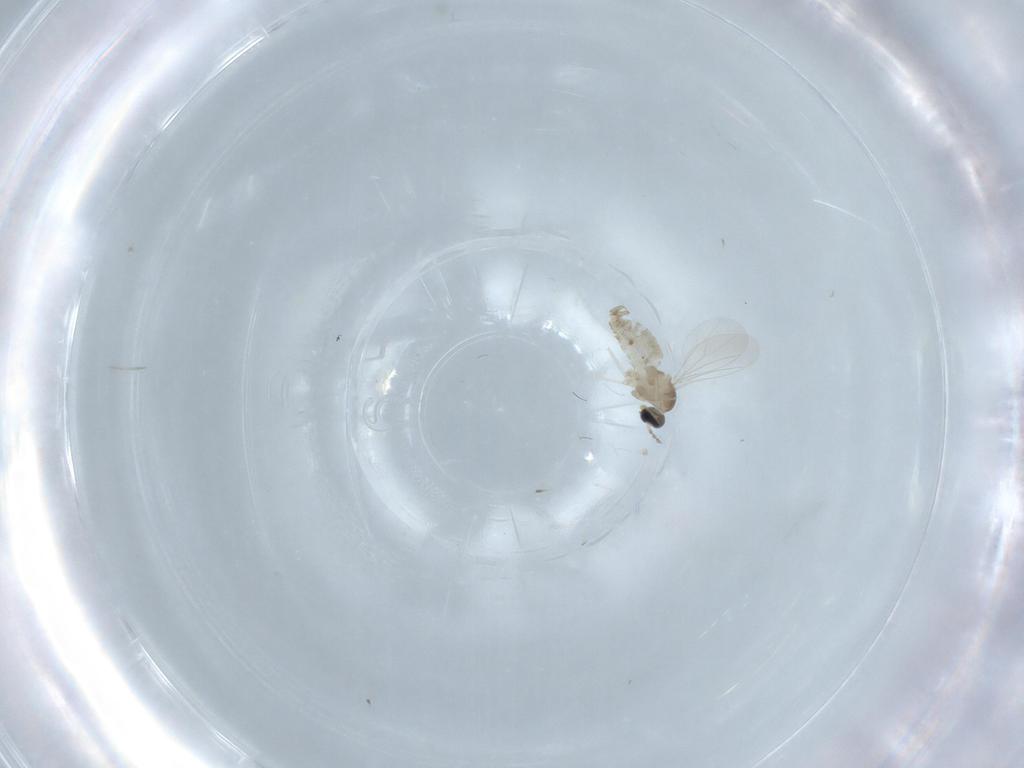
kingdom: Animalia
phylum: Arthropoda
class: Insecta
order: Diptera
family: Cecidomyiidae
